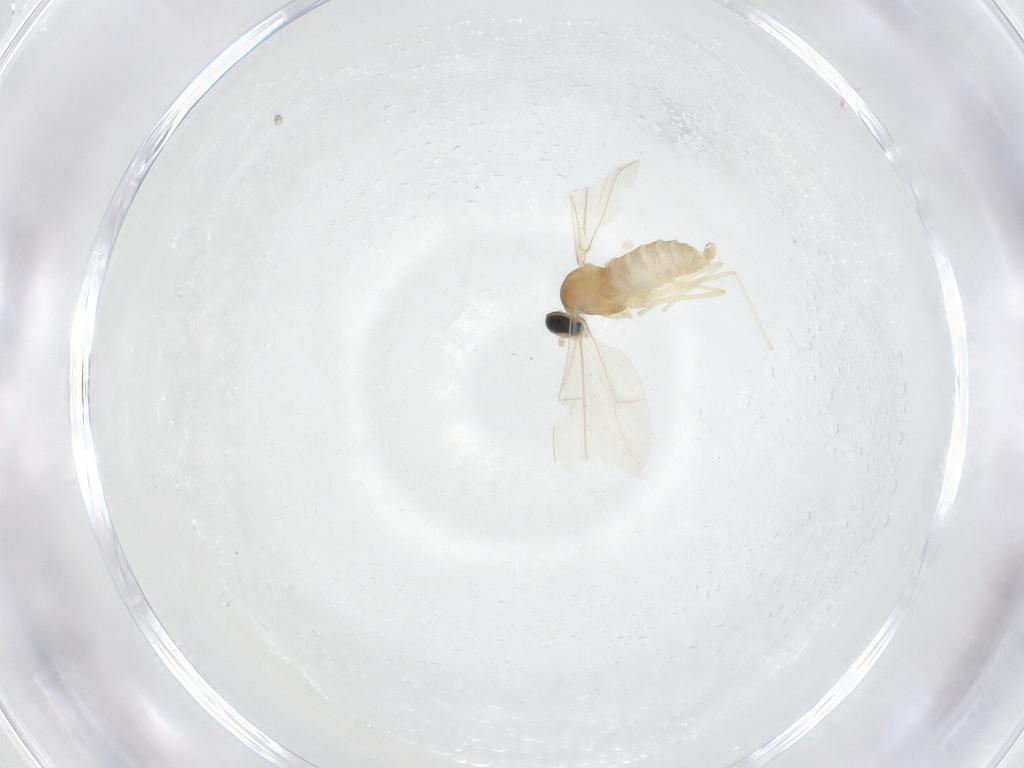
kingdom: Animalia
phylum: Arthropoda
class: Insecta
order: Diptera
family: Cecidomyiidae
